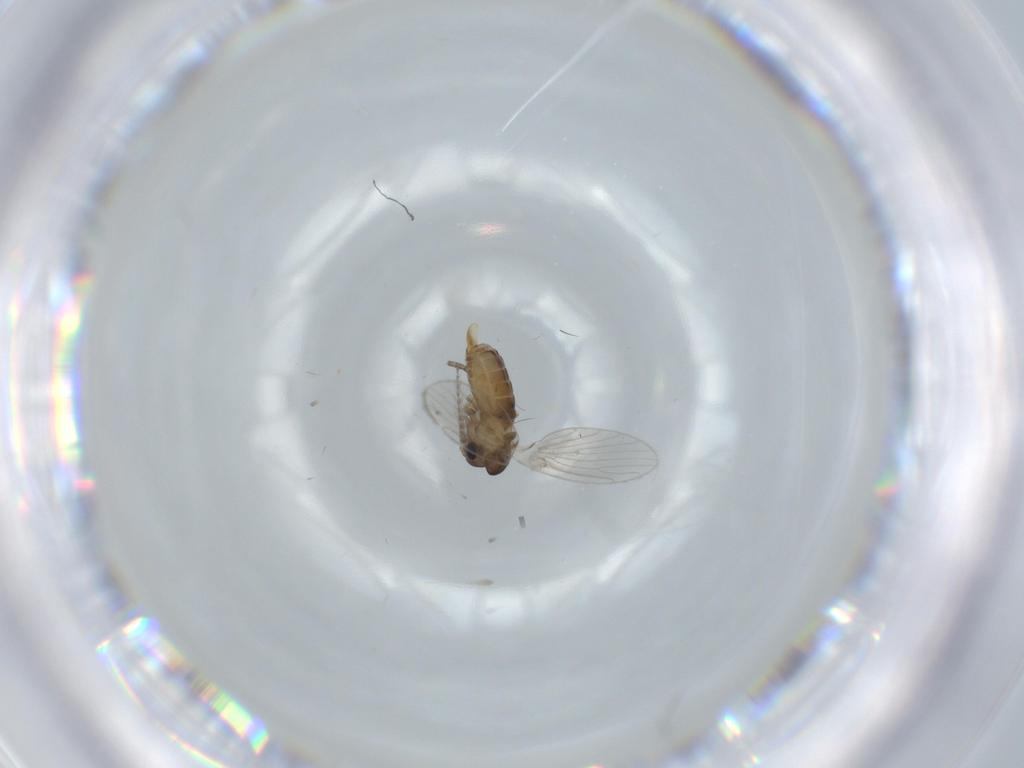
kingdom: Animalia
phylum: Arthropoda
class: Insecta
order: Diptera
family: Psychodidae
